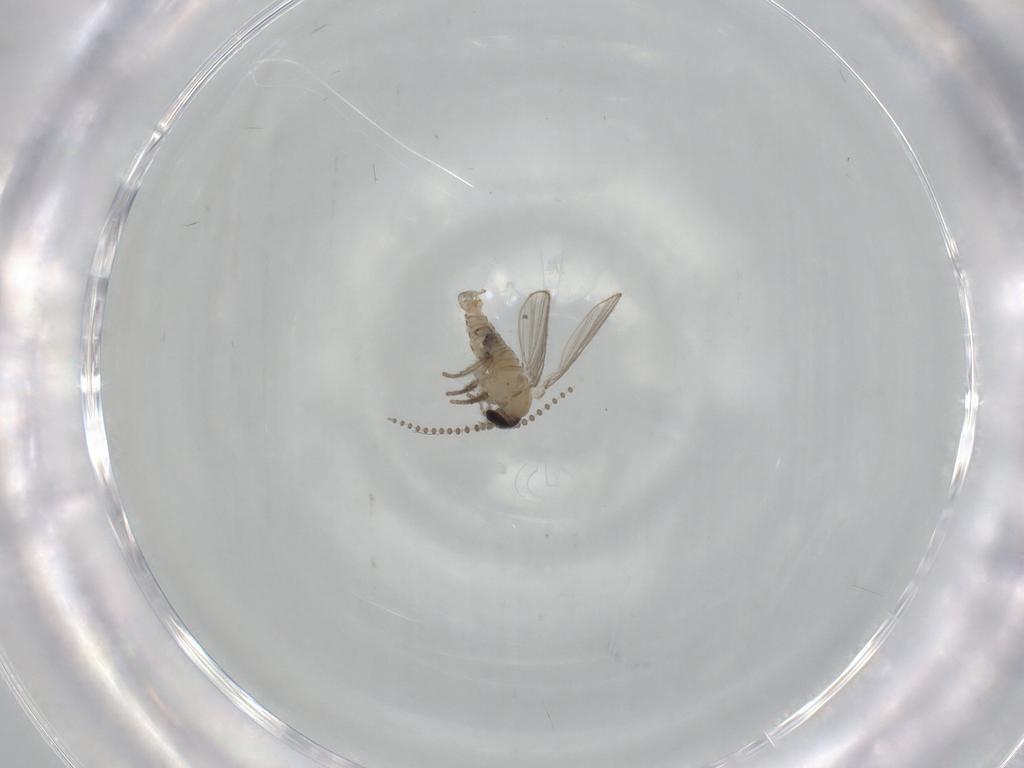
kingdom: Animalia
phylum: Arthropoda
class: Insecta
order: Diptera
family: Psychodidae
